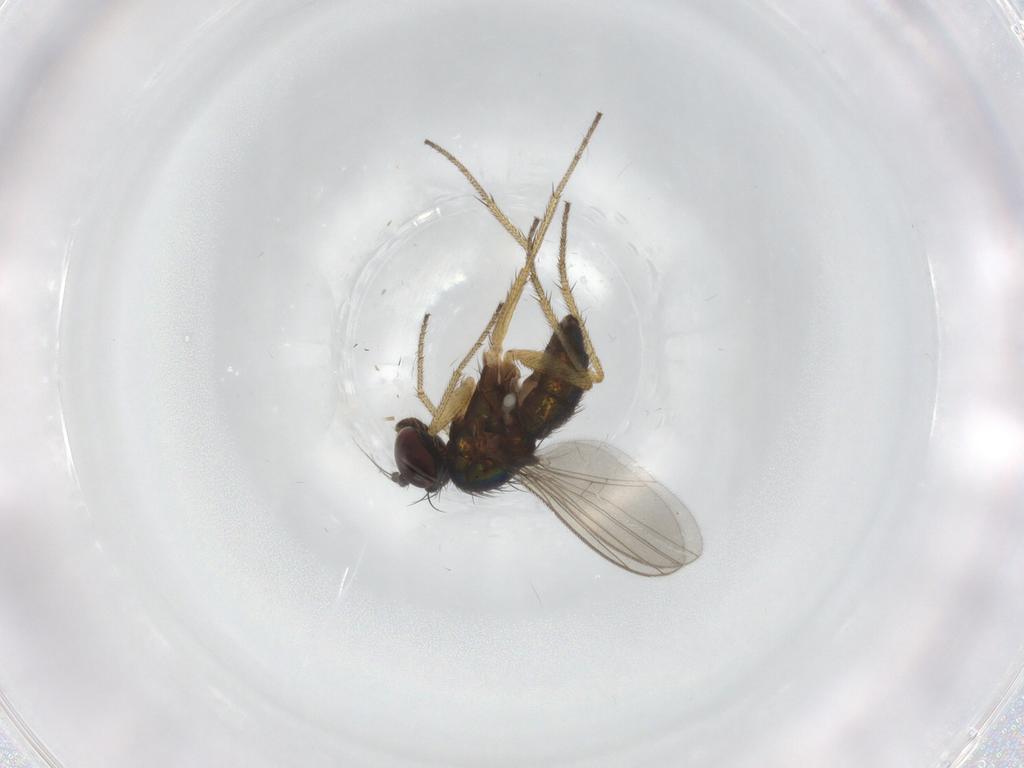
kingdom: Animalia
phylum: Arthropoda
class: Insecta
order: Diptera
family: Dolichopodidae
